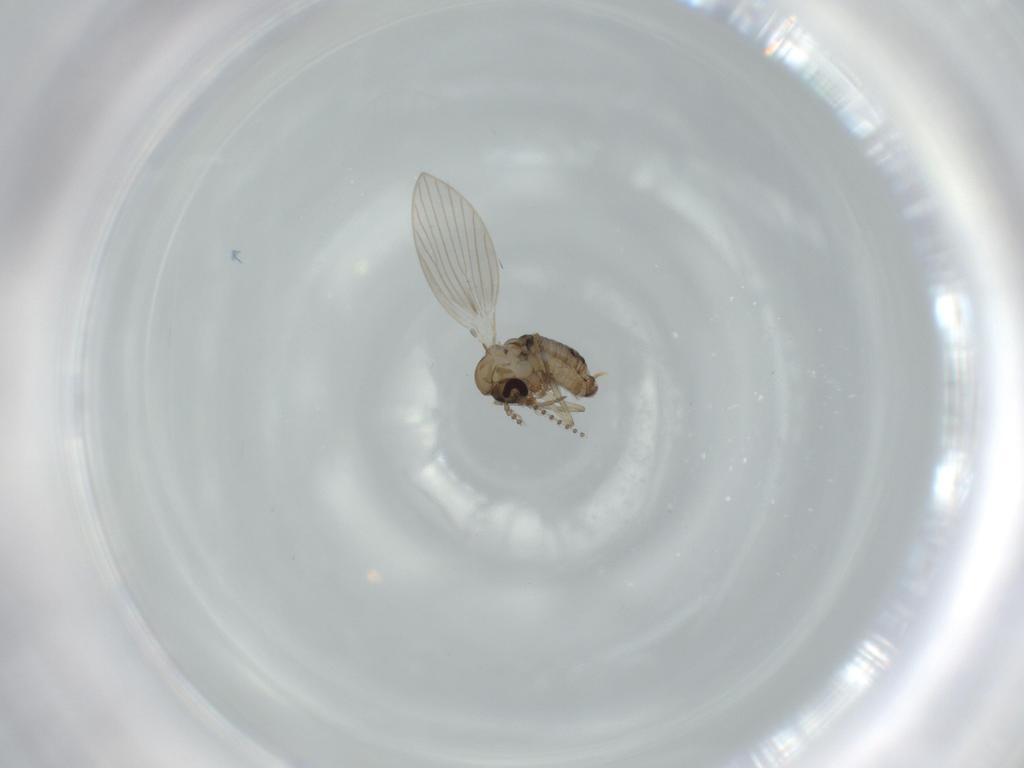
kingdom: Animalia
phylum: Arthropoda
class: Insecta
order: Diptera
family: Psychodidae
